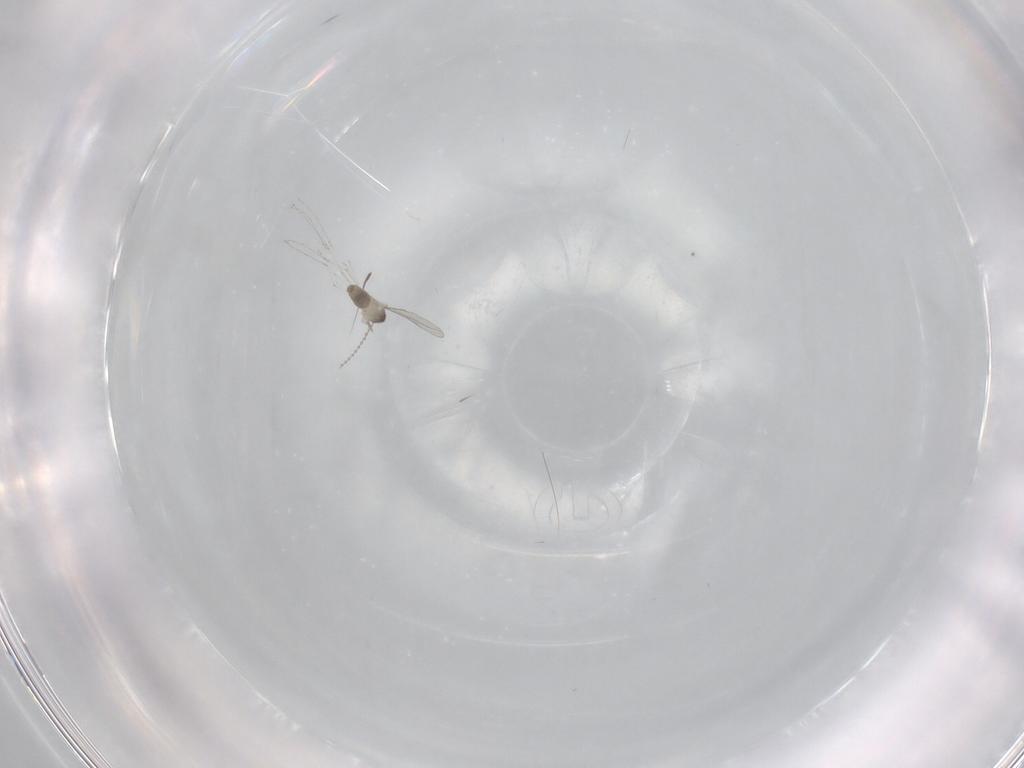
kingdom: Animalia
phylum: Arthropoda
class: Insecta
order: Diptera
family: Cecidomyiidae
